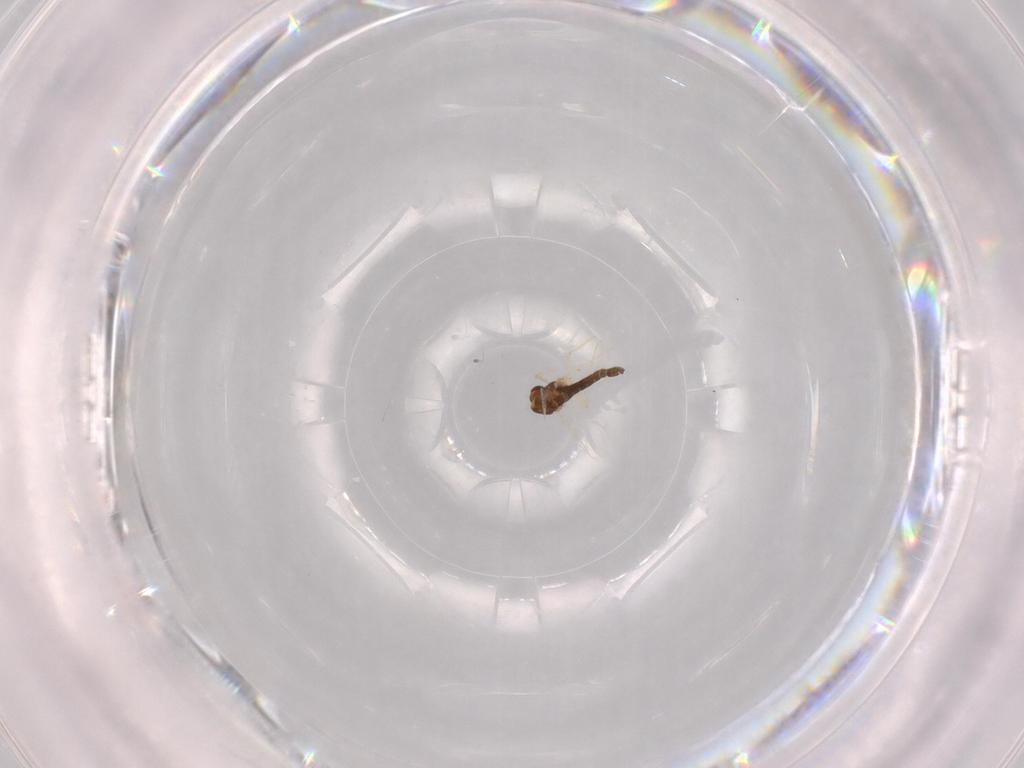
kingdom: Animalia
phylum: Arthropoda
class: Insecta
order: Diptera
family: Chironomidae
